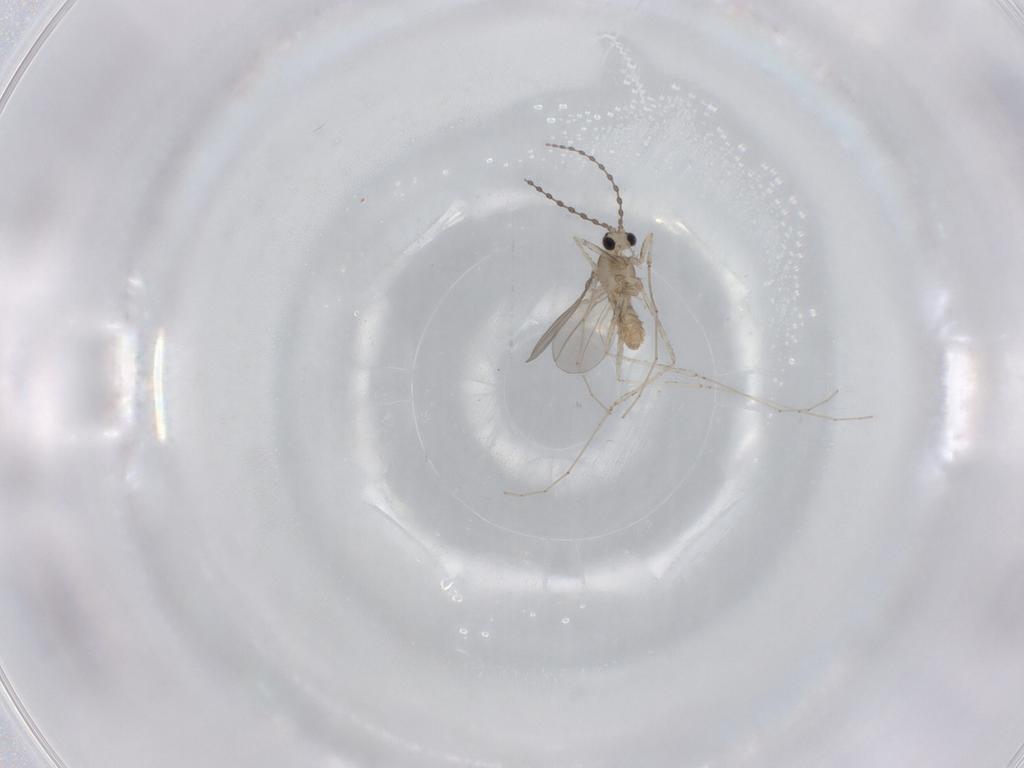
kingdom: Animalia
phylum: Arthropoda
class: Insecta
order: Diptera
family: Cecidomyiidae
